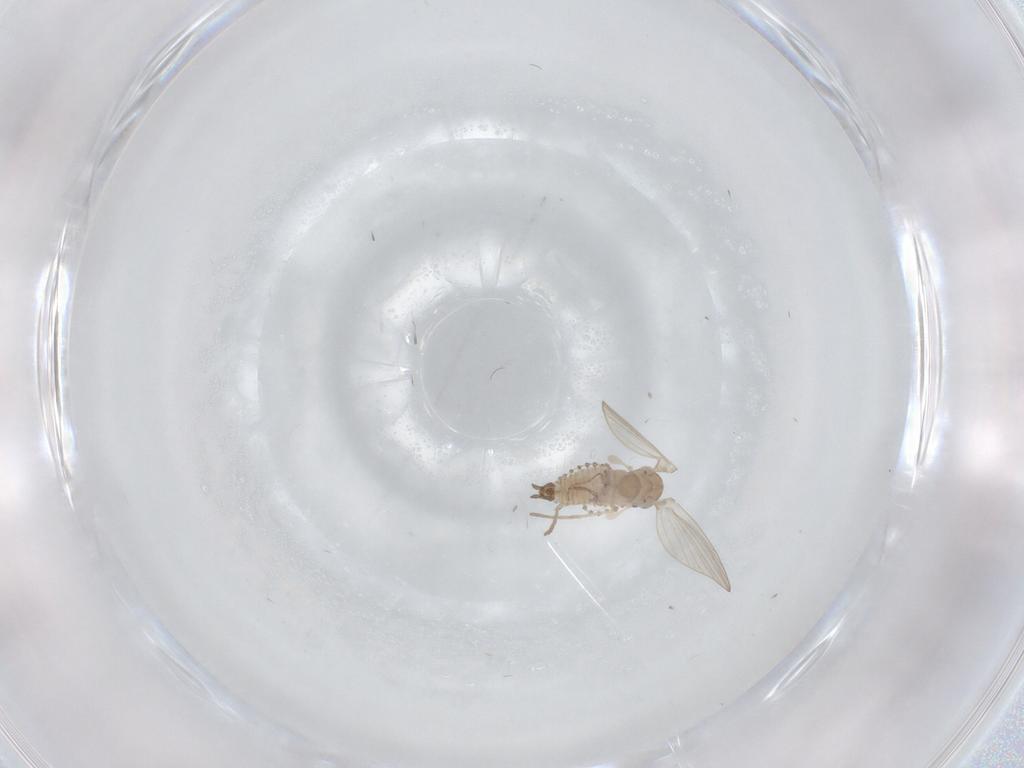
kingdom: Animalia
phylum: Arthropoda
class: Insecta
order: Diptera
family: Psychodidae
